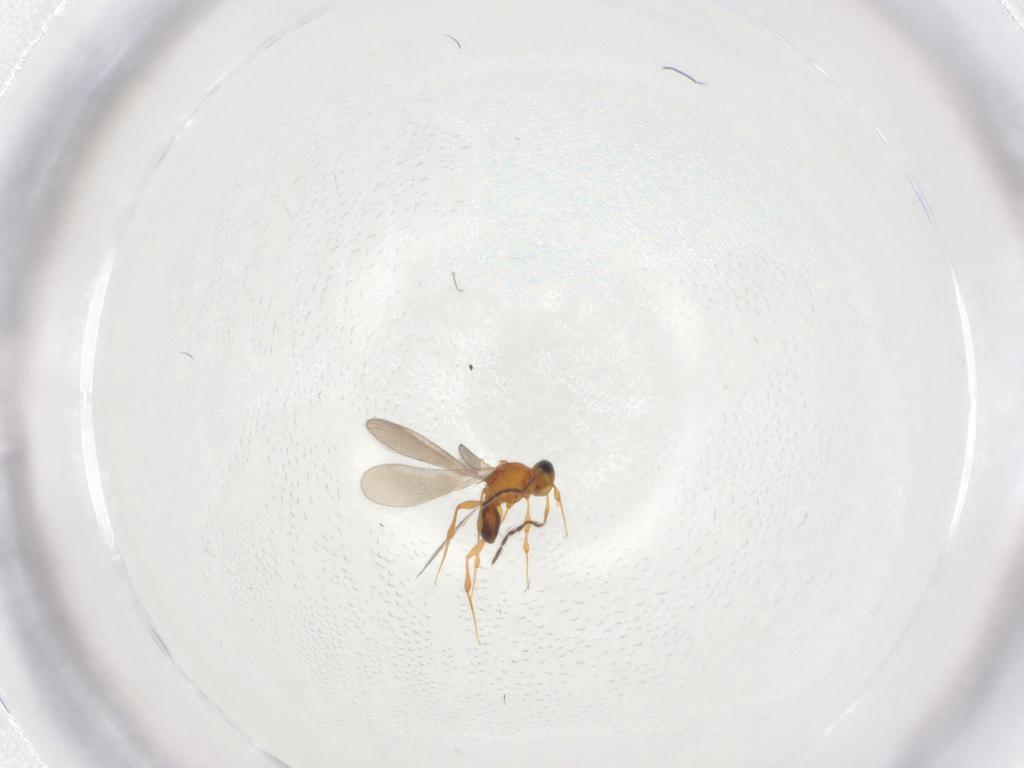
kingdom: Animalia
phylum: Arthropoda
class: Insecta
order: Hymenoptera
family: Platygastridae
